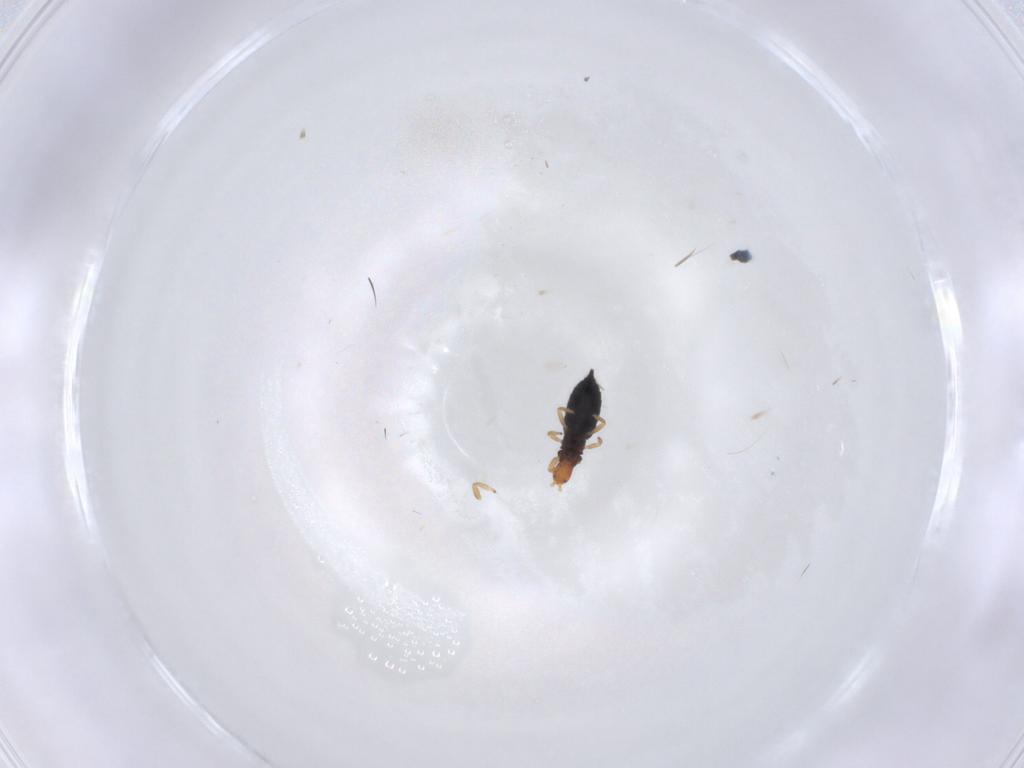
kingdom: Animalia
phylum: Arthropoda
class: Insecta
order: Thysanoptera
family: Phlaeothripidae
